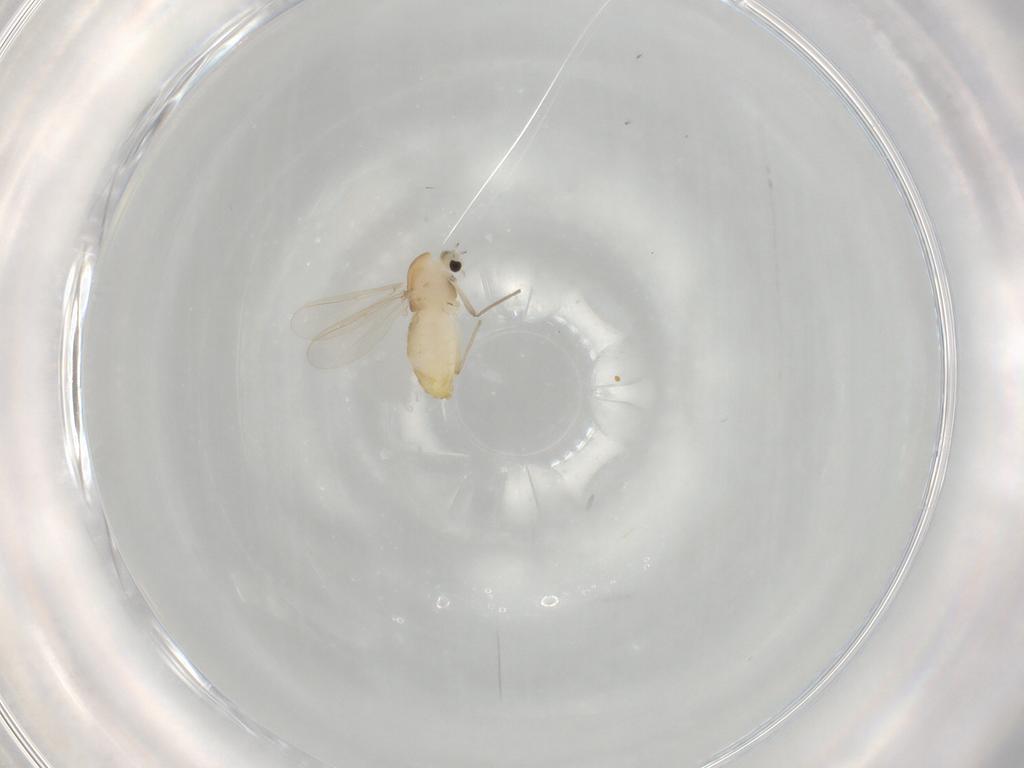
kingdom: Animalia
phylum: Arthropoda
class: Insecta
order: Diptera
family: Chironomidae
